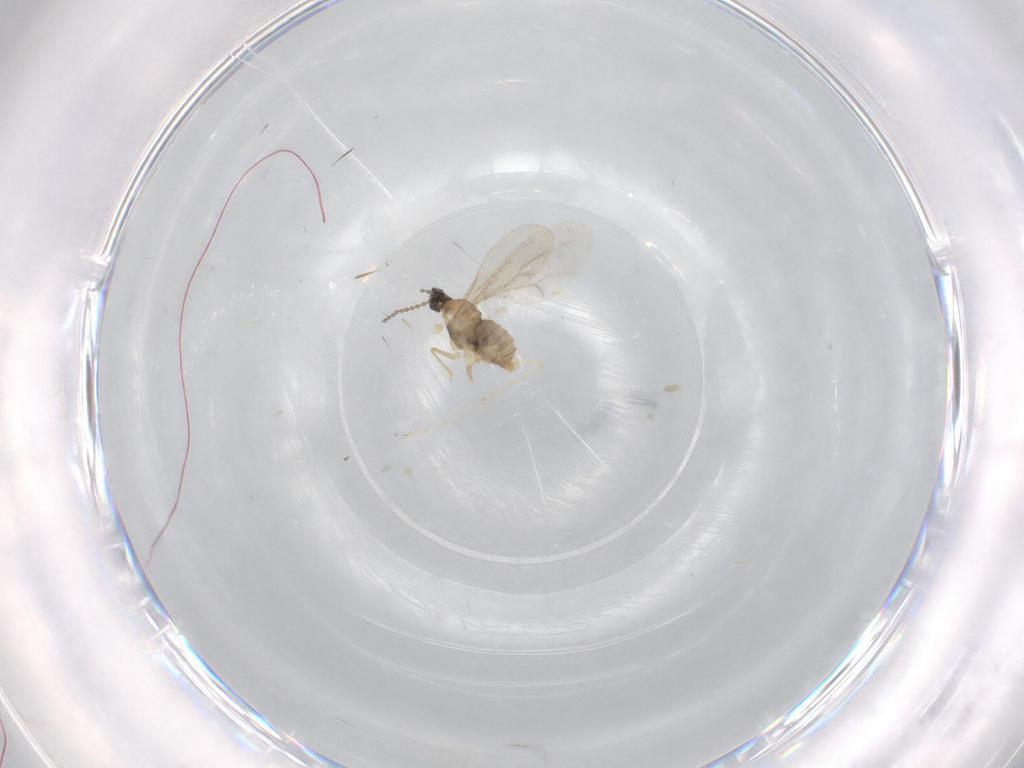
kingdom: Animalia
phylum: Arthropoda
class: Insecta
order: Diptera
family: Cecidomyiidae
